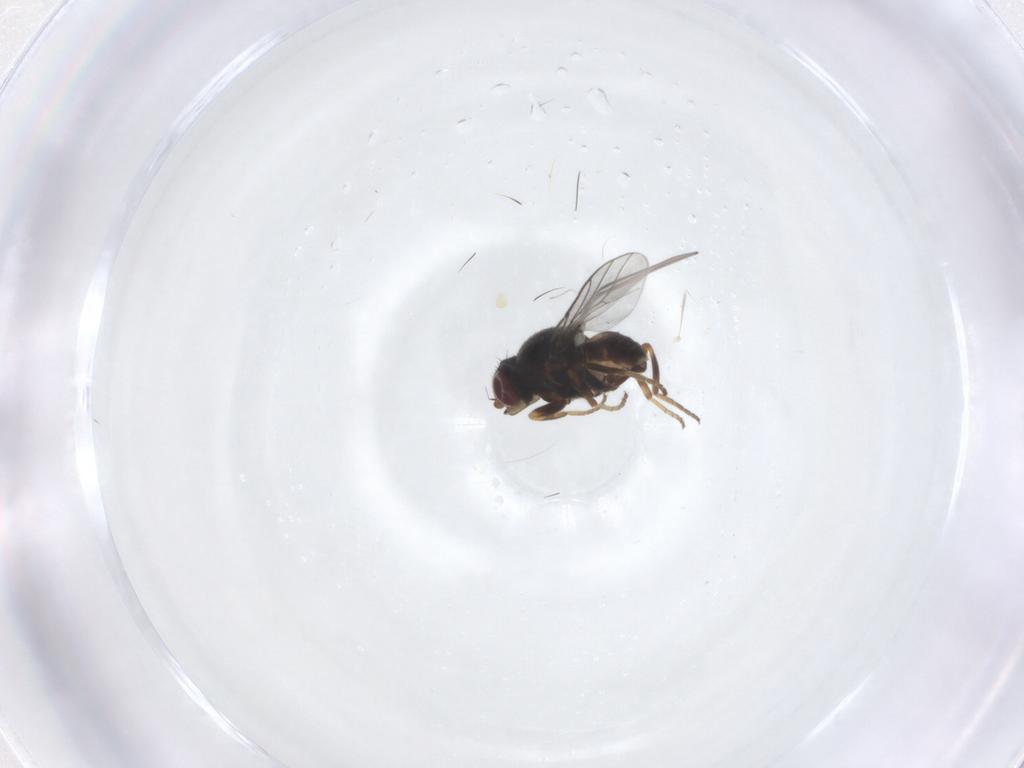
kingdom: Animalia
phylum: Arthropoda
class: Insecta
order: Diptera
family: Chloropidae
